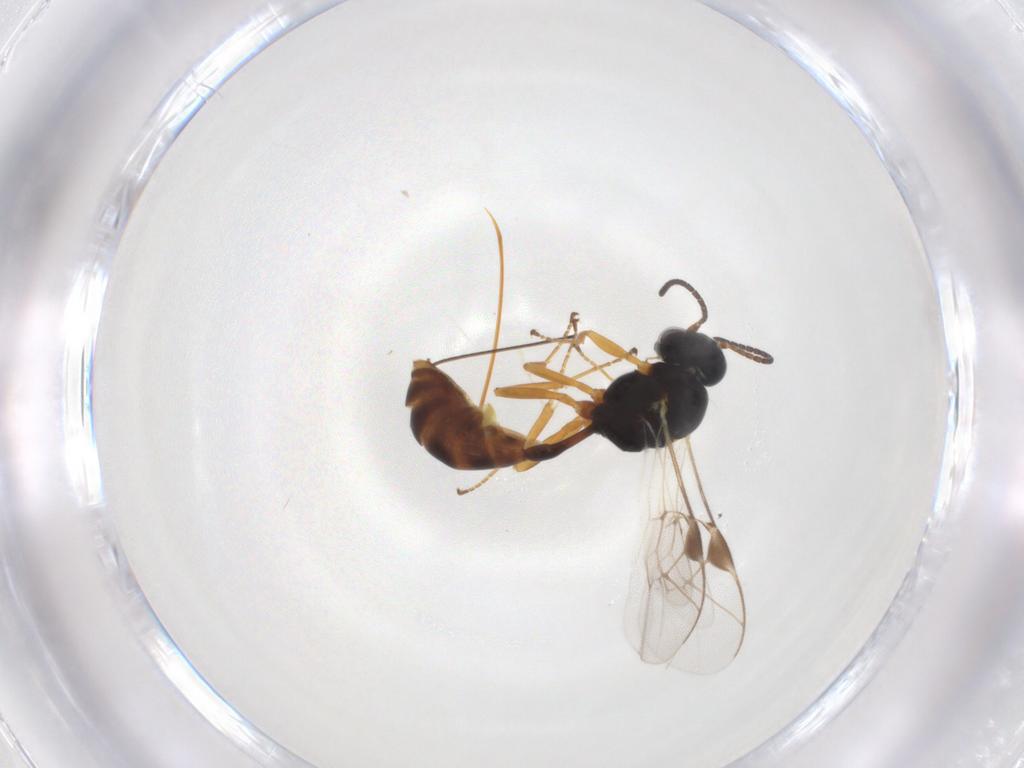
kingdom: Animalia
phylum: Arthropoda
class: Insecta
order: Hymenoptera
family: Ichneumonidae
